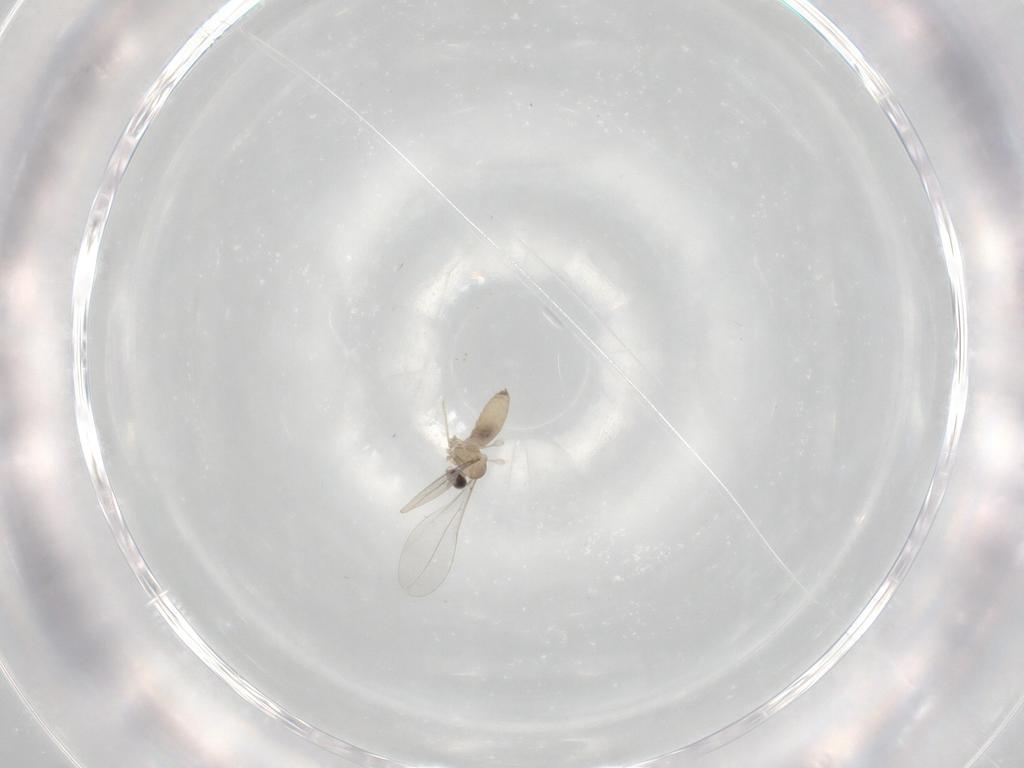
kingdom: Animalia
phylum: Arthropoda
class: Insecta
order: Diptera
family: Cecidomyiidae
